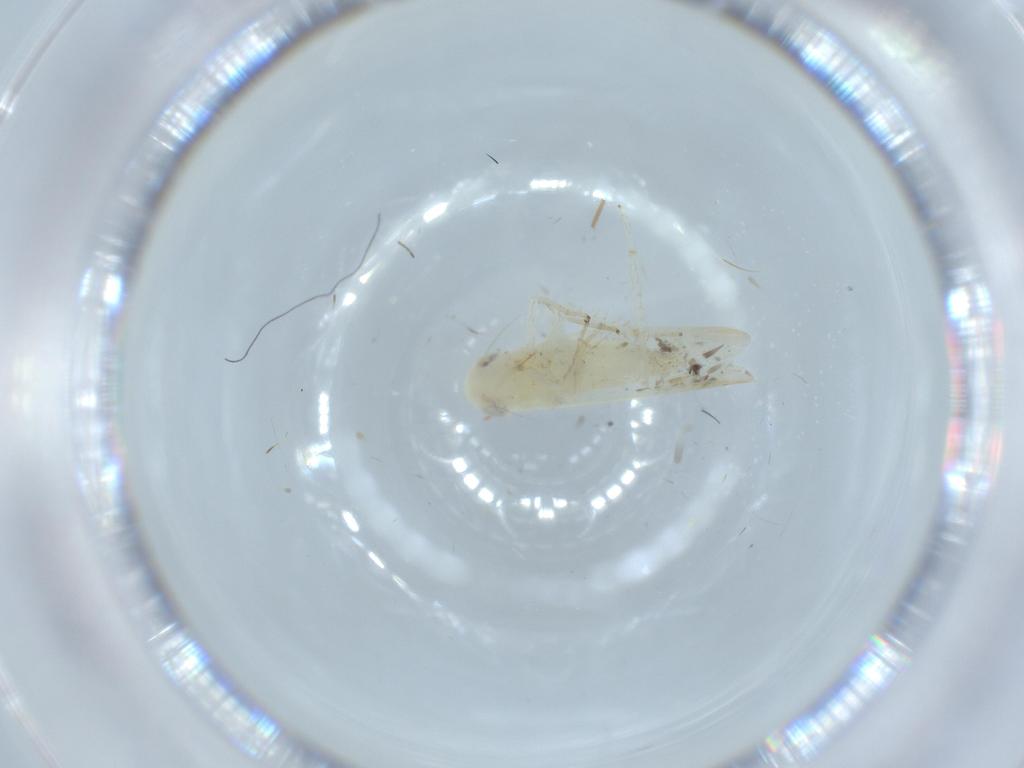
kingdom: Animalia
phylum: Arthropoda
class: Insecta
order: Hemiptera
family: Cicadellidae
